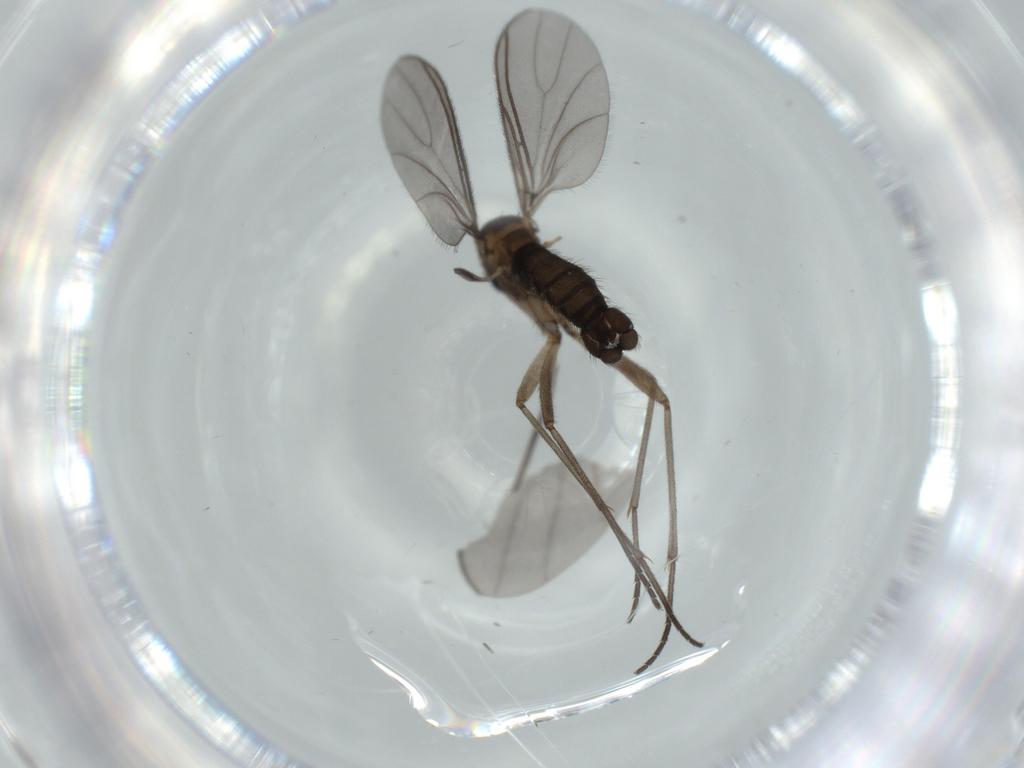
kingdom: Animalia
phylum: Arthropoda
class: Insecta
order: Diptera
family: Sciaridae
